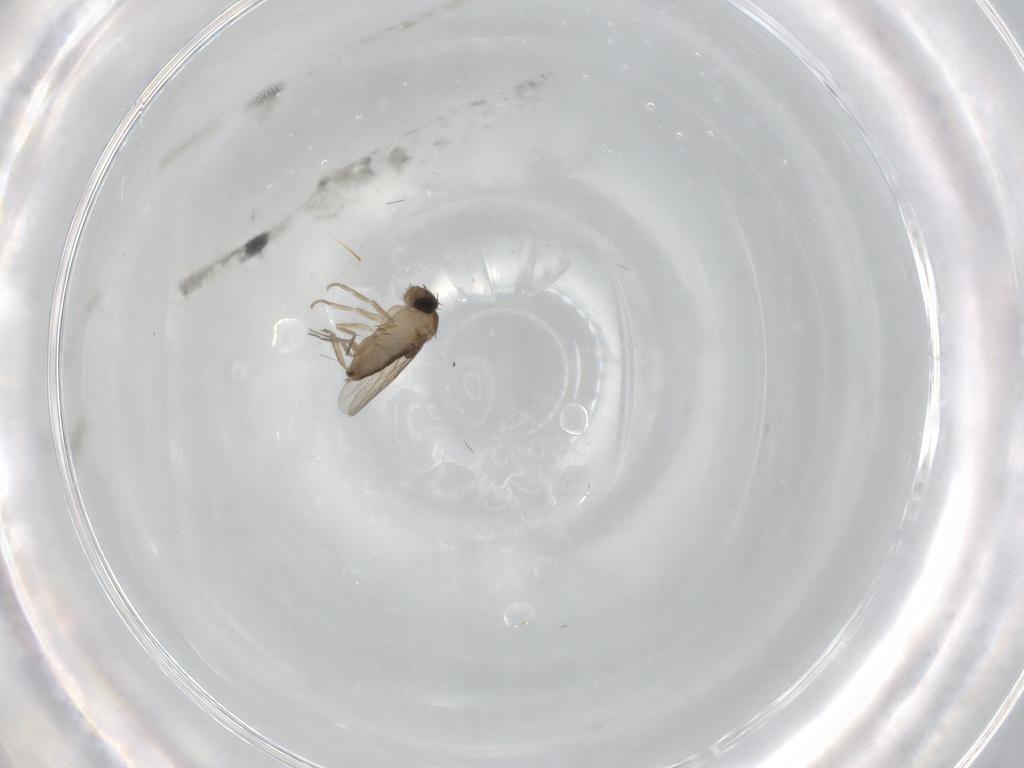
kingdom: Animalia
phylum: Arthropoda
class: Insecta
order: Diptera
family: Phoridae
